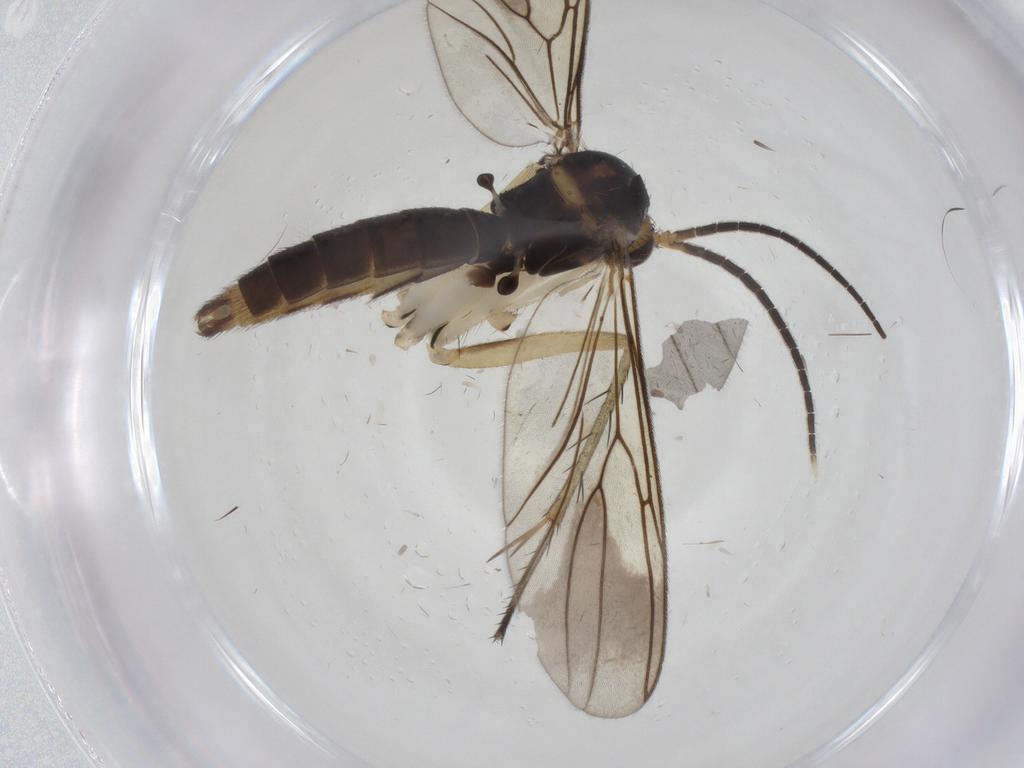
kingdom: Animalia
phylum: Arthropoda
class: Insecta
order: Diptera
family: Mycetophilidae
